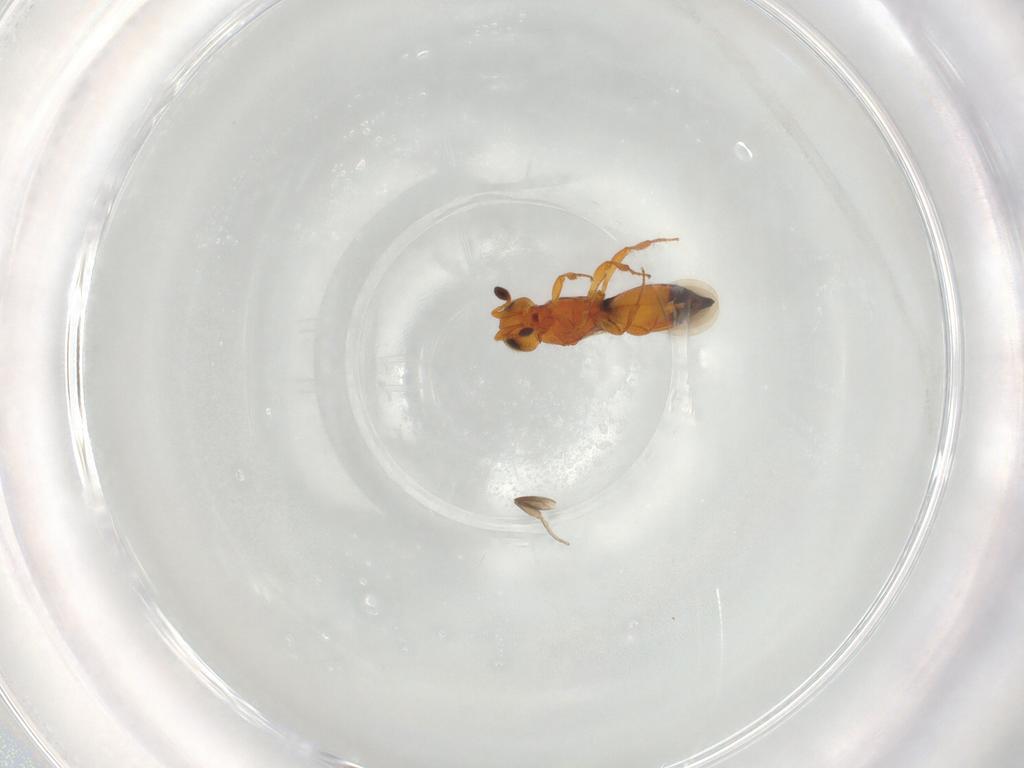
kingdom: Animalia
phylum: Arthropoda
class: Insecta
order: Hymenoptera
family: Platygastridae
